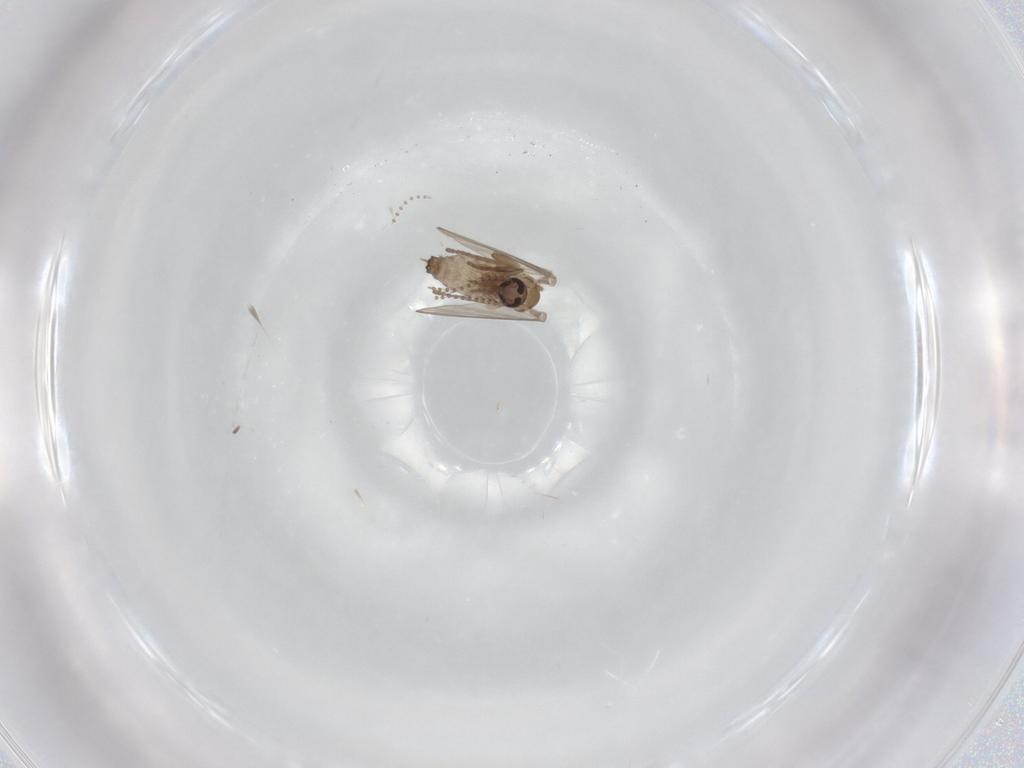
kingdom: Animalia
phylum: Arthropoda
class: Insecta
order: Diptera
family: Psychodidae
